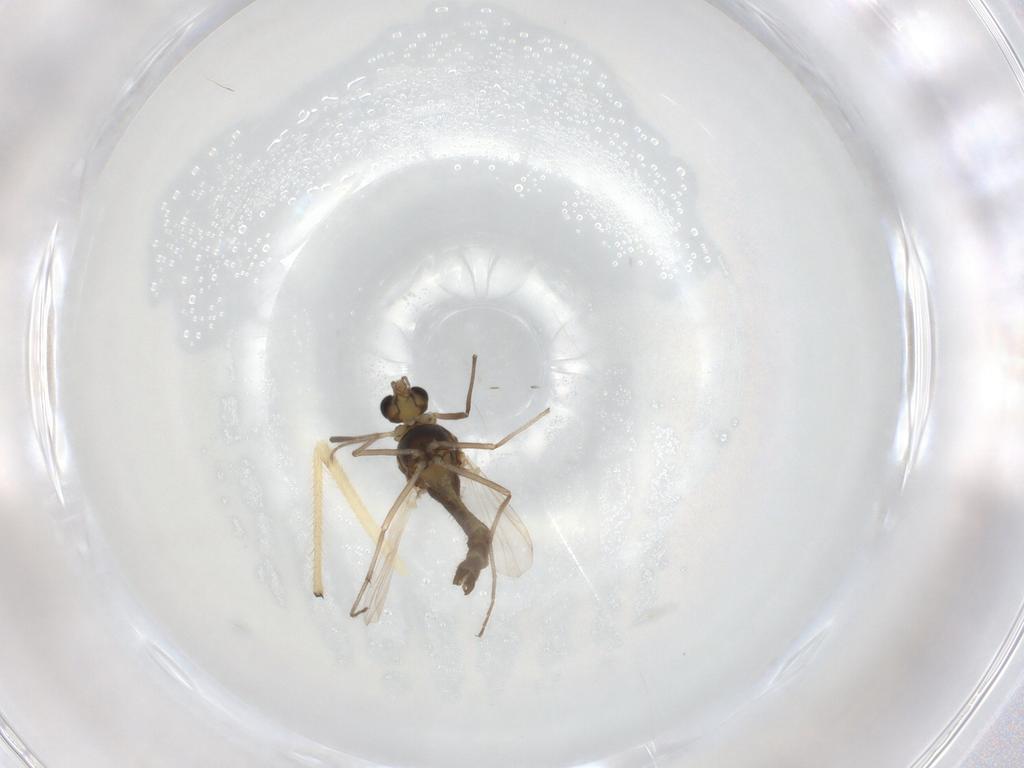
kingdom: Animalia
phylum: Arthropoda
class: Insecta
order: Diptera
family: Chironomidae
